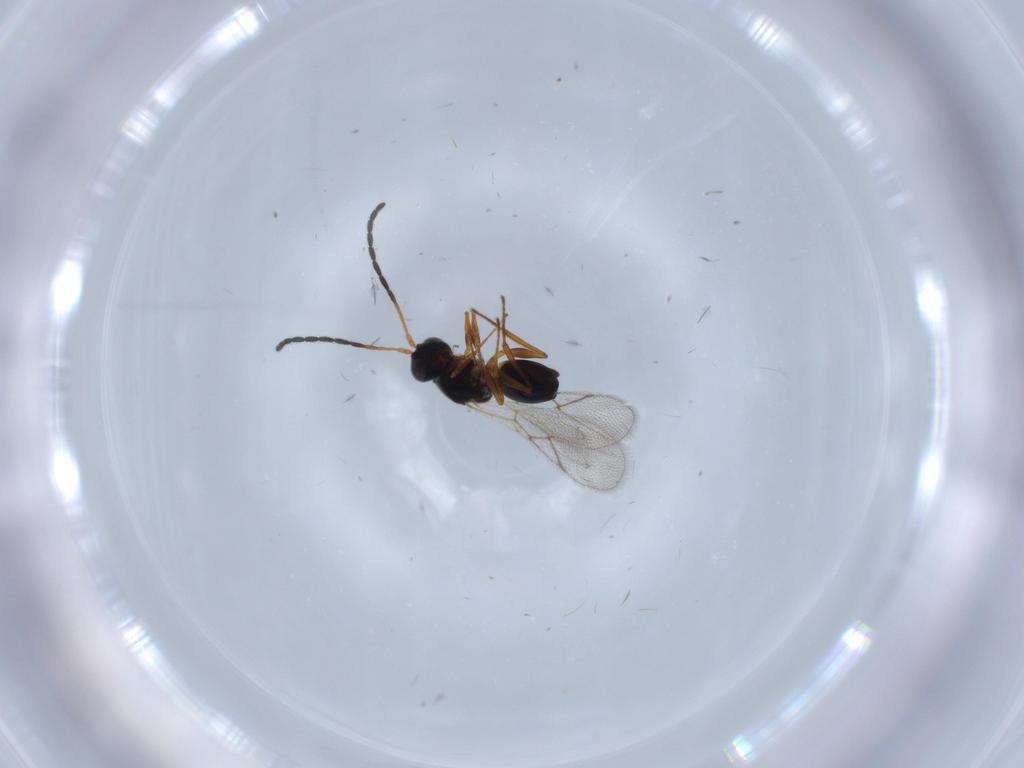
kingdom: Animalia
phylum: Arthropoda
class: Insecta
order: Hymenoptera
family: Figitidae
